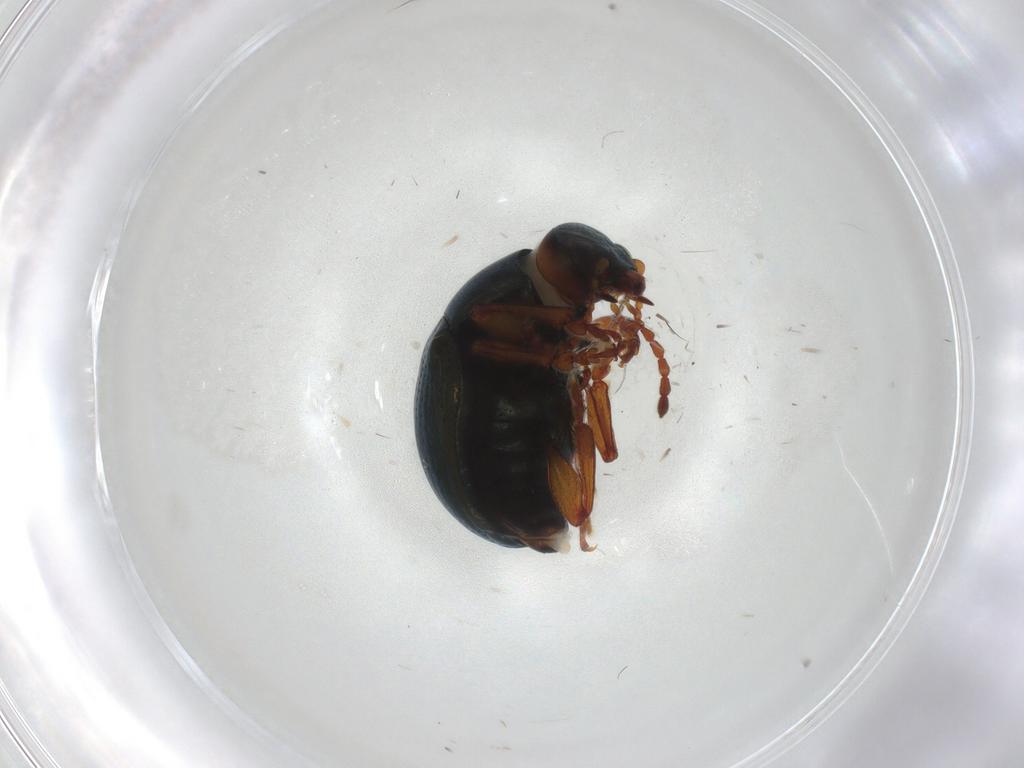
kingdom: Animalia
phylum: Arthropoda
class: Insecta
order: Coleoptera
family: Chrysomelidae
